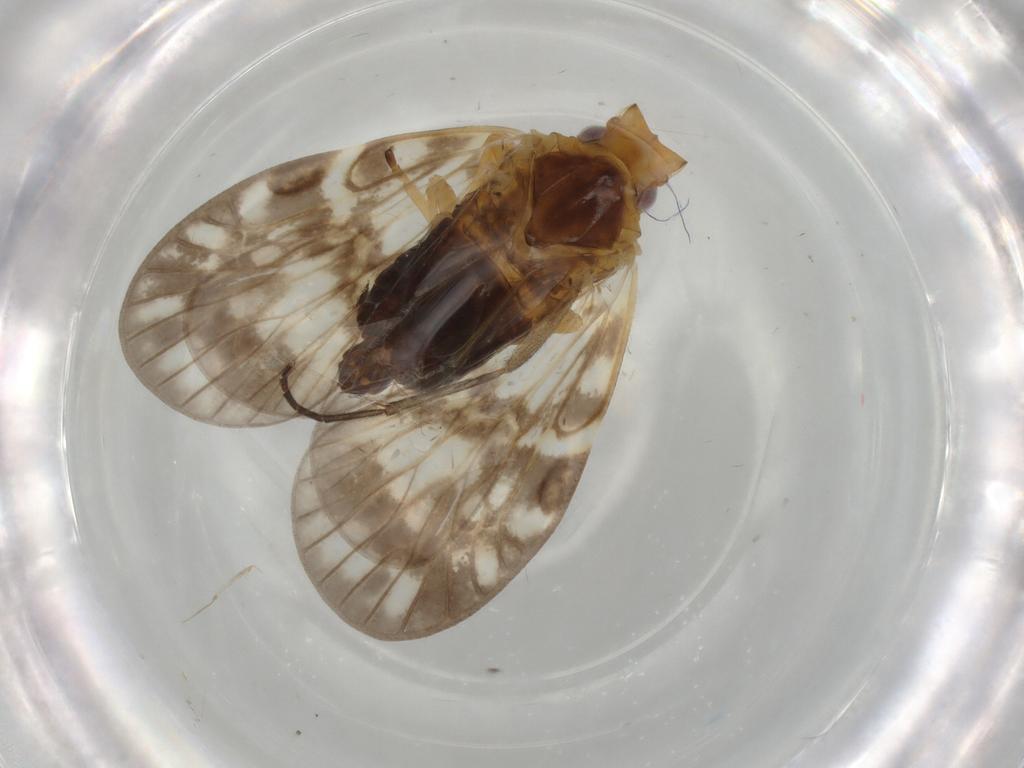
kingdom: Animalia
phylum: Arthropoda
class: Insecta
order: Hemiptera
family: Cixiidae
